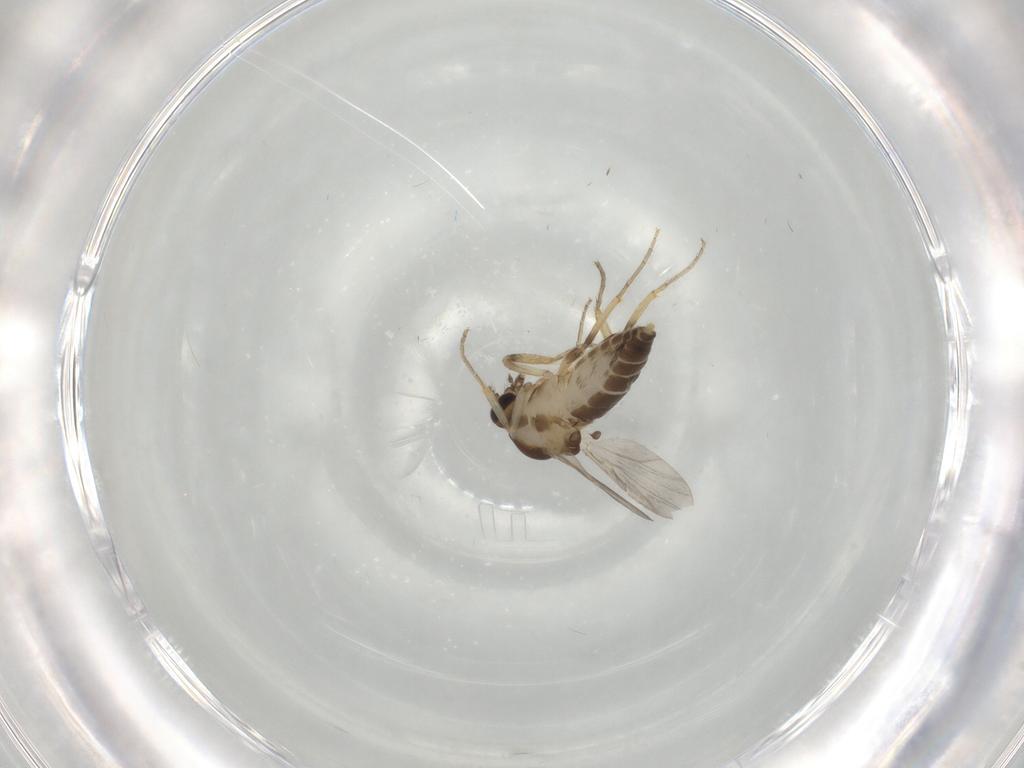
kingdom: Animalia
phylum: Arthropoda
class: Insecta
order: Diptera
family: Ceratopogonidae
